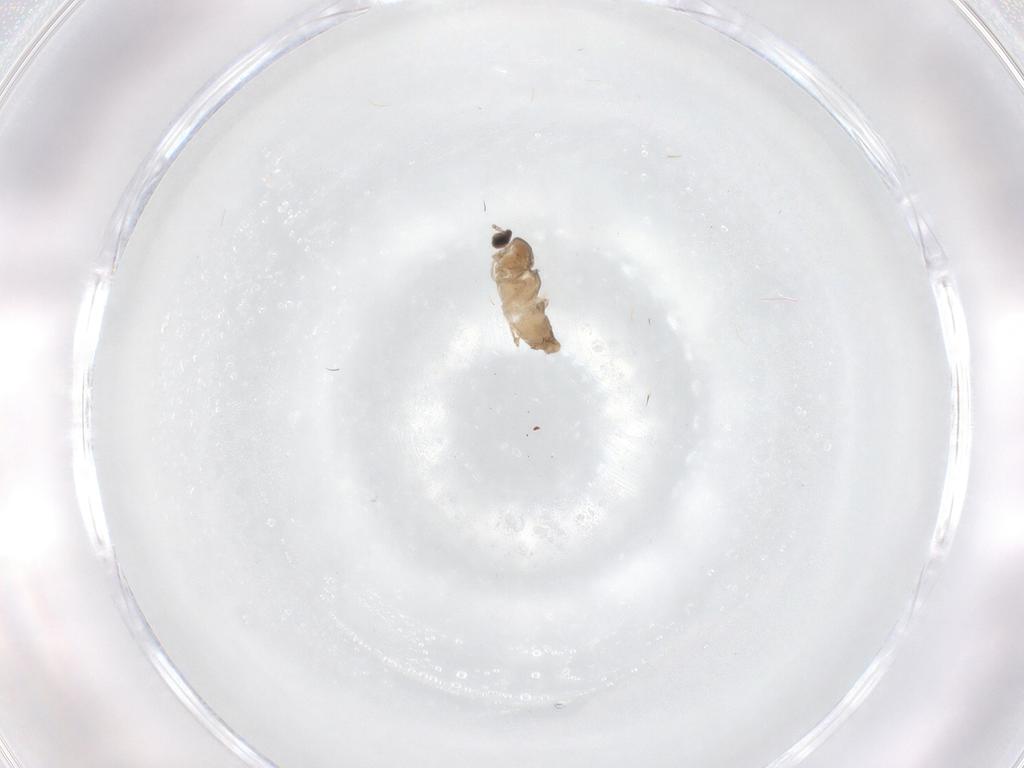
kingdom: Animalia
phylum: Arthropoda
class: Insecta
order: Diptera
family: Cecidomyiidae
